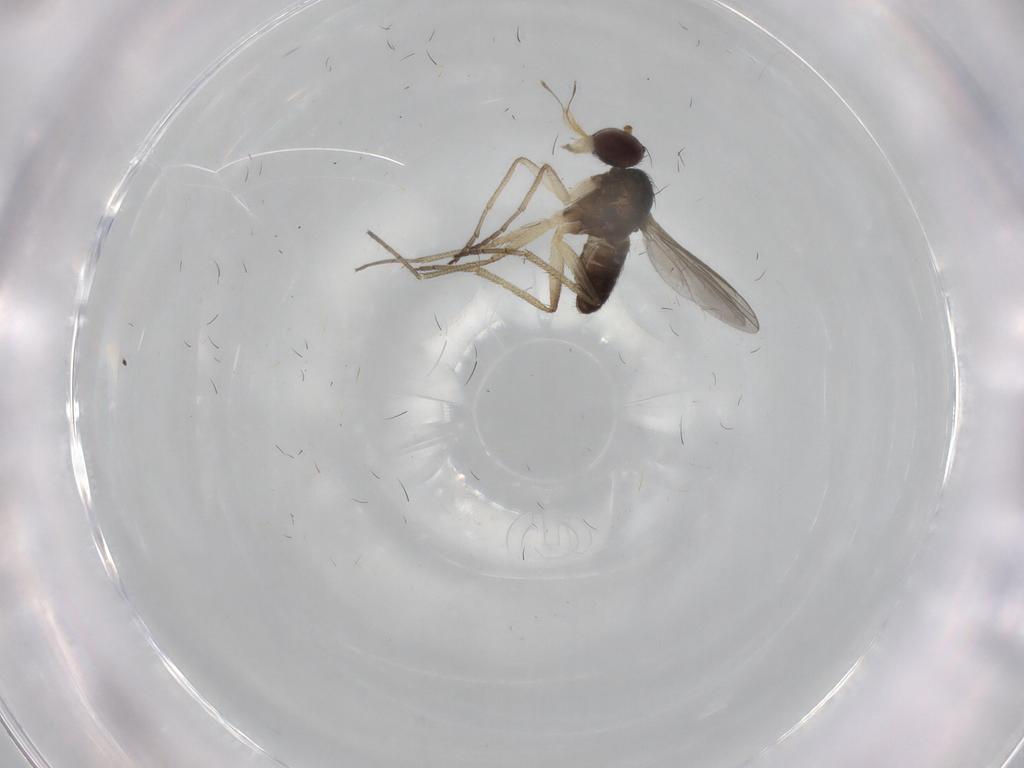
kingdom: Animalia
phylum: Arthropoda
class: Insecta
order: Diptera
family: Dolichopodidae
